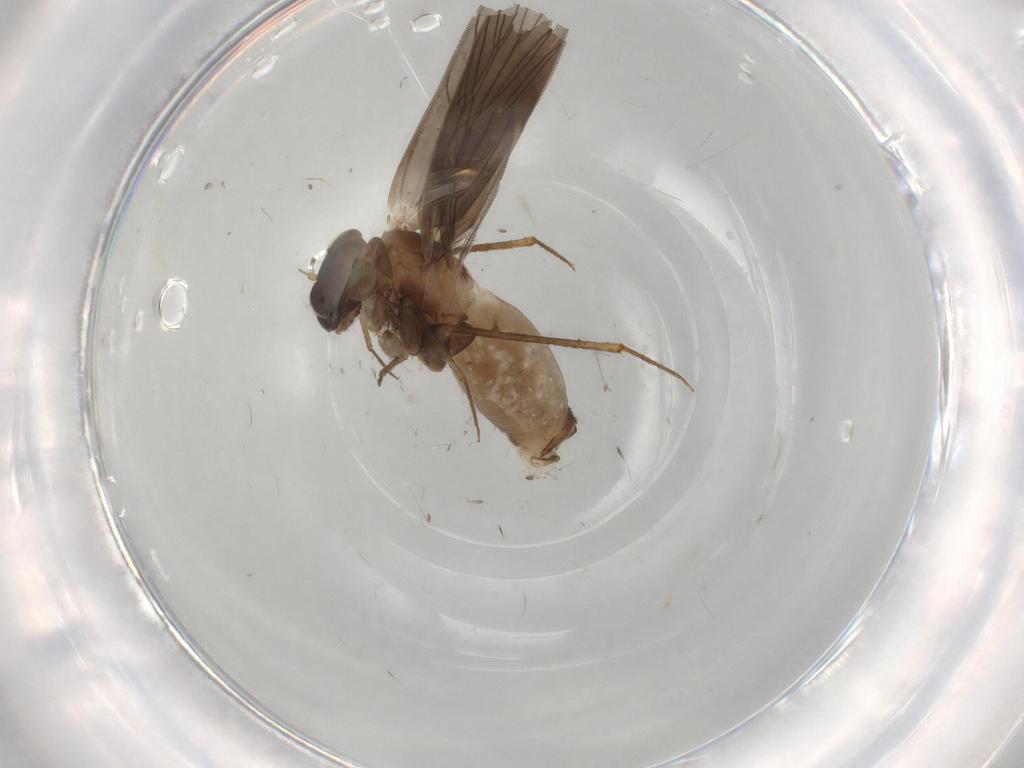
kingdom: Animalia
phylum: Arthropoda
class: Insecta
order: Psocodea
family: Lepidopsocidae
